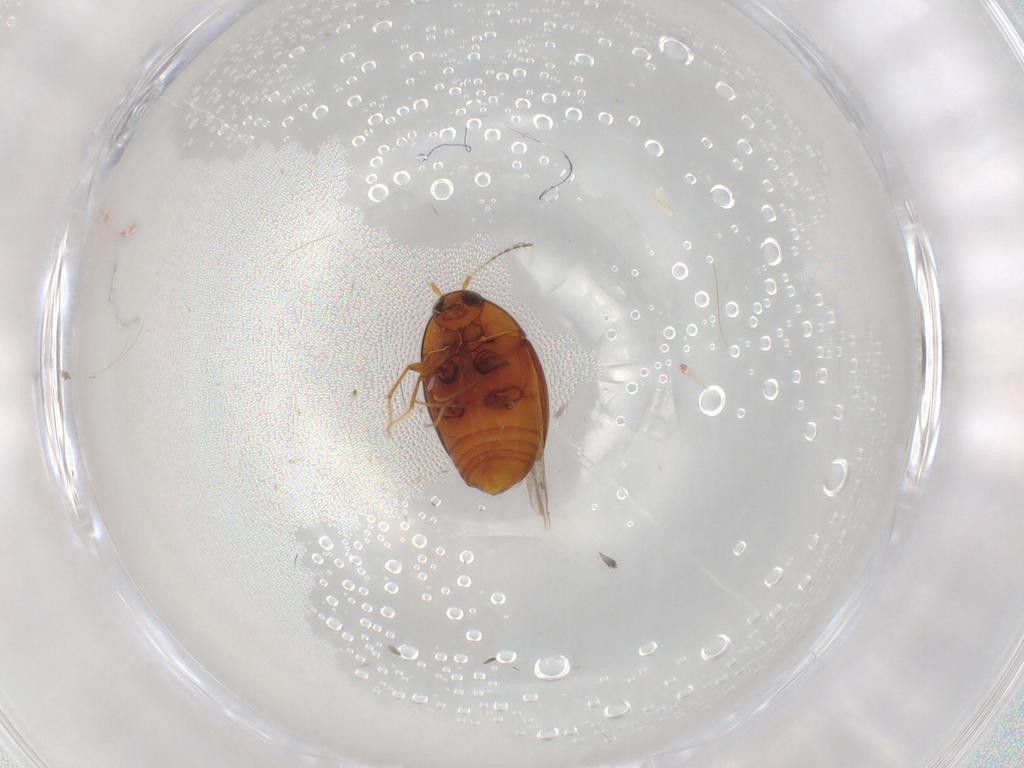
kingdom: Animalia
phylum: Arthropoda
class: Insecta
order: Coleoptera
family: Staphylinidae
